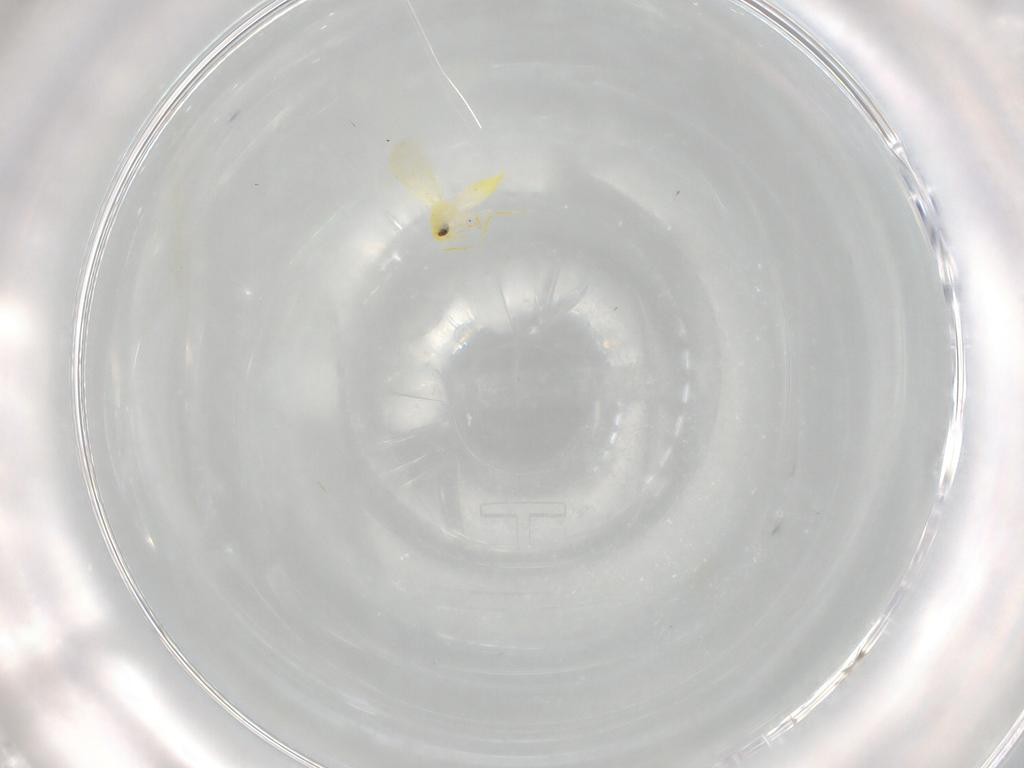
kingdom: Animalia
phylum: Arthropoda
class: Insecta
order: Hemiptera
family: Aleyrodidae
